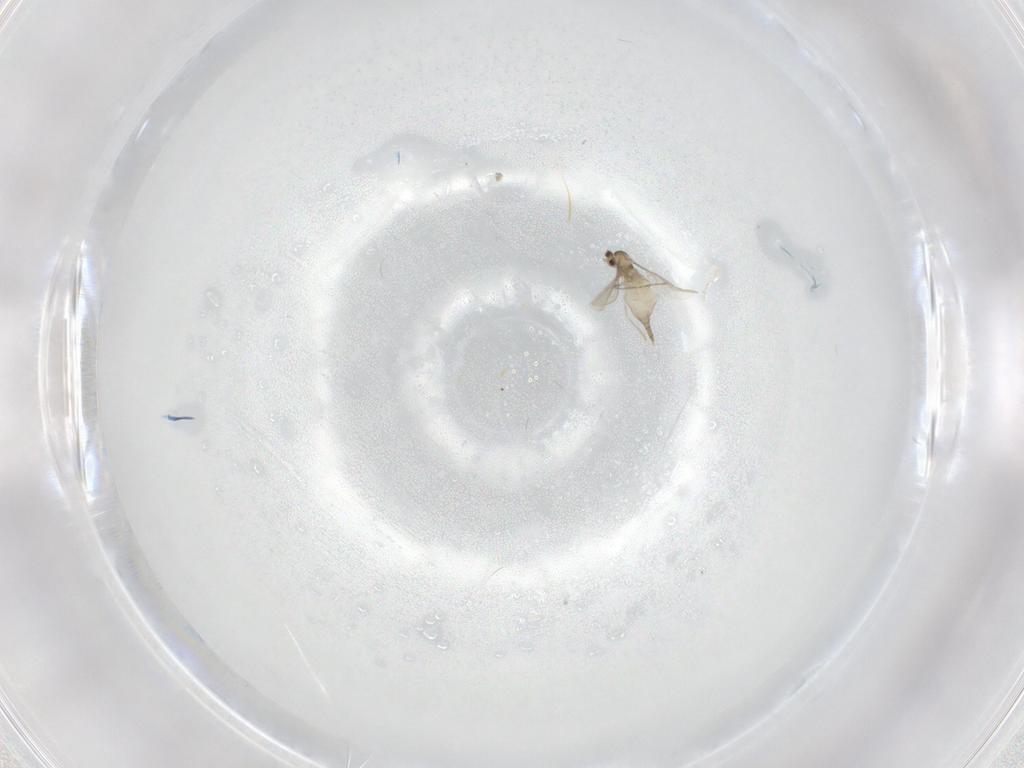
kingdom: Animalia
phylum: Arthropoda
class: Insecta
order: Diptera
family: Cecidomyiidae
